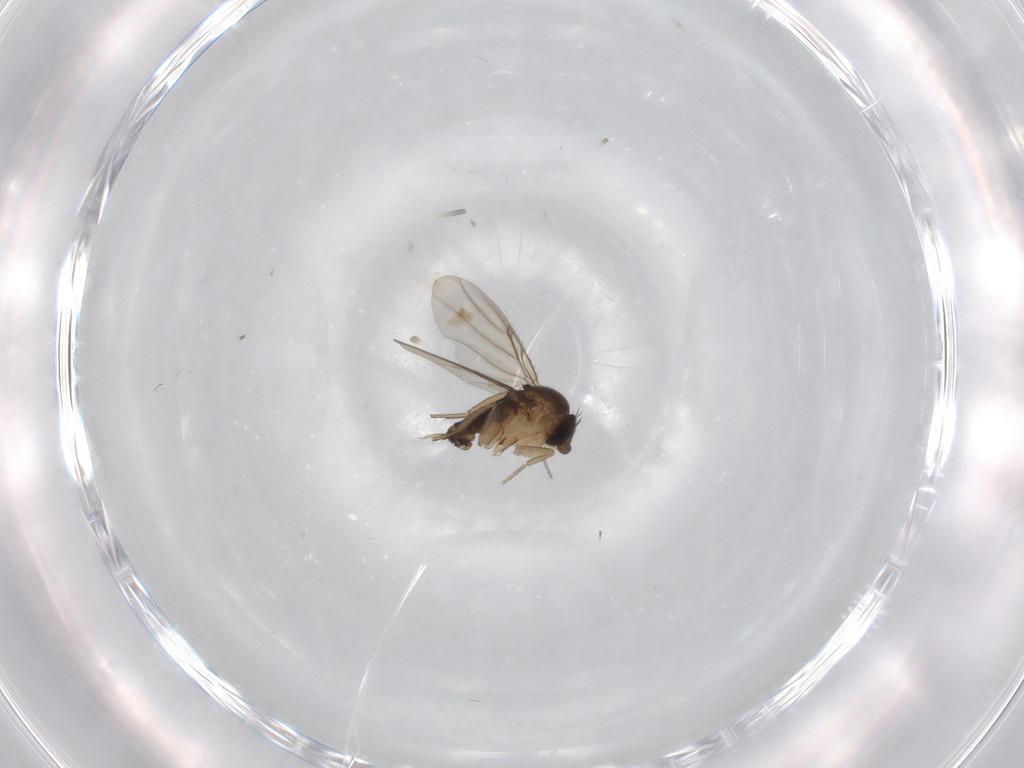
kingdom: Animalia
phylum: Arthropoda
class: Insecta
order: Diptera
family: Phoridae
